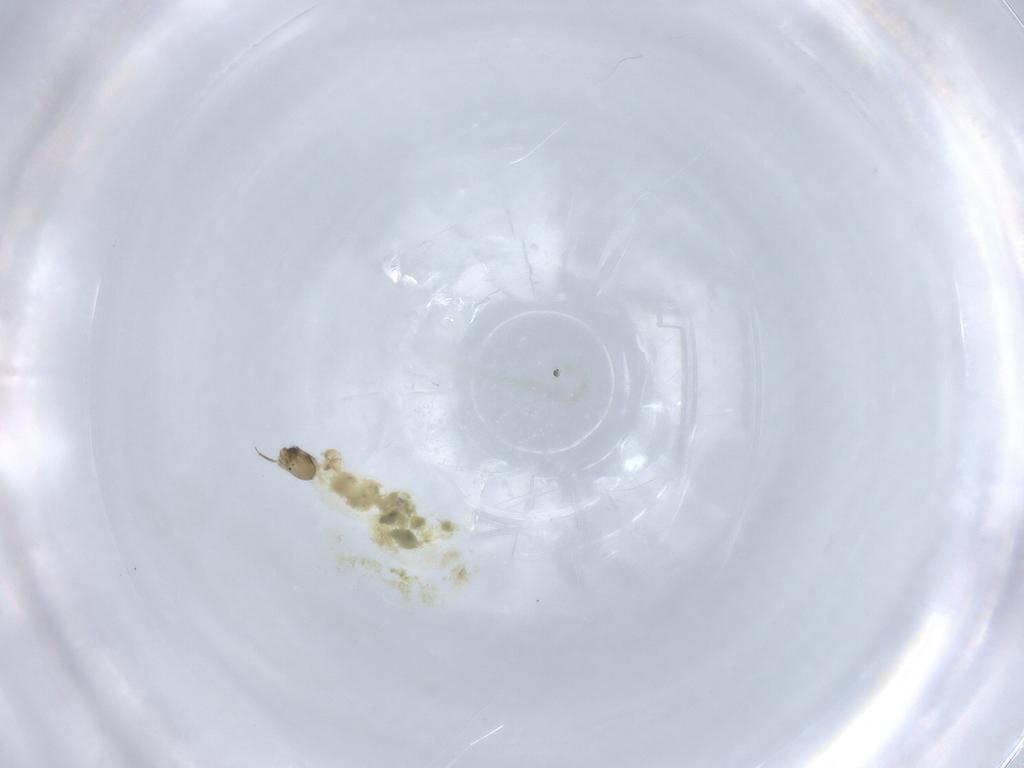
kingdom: Animalia
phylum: Arthropoda
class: Insecta
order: Diptera
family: Chironomidae
